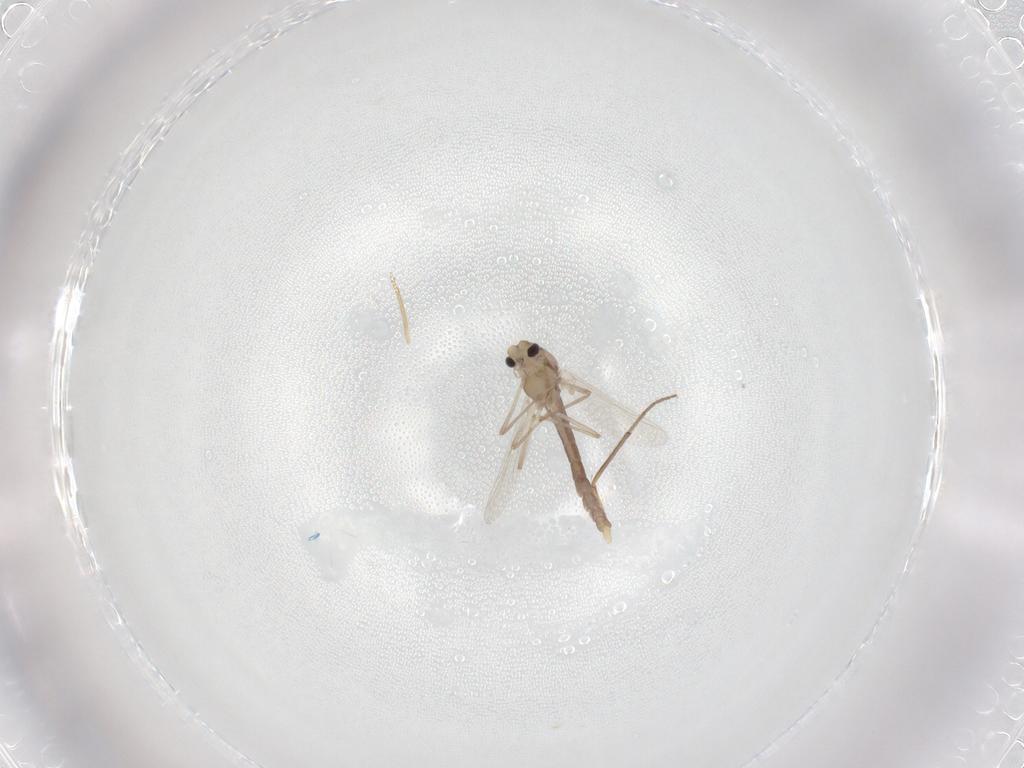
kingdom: Animalia
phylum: Arthropoda
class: Insecta
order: Diptera
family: Chironomidae
